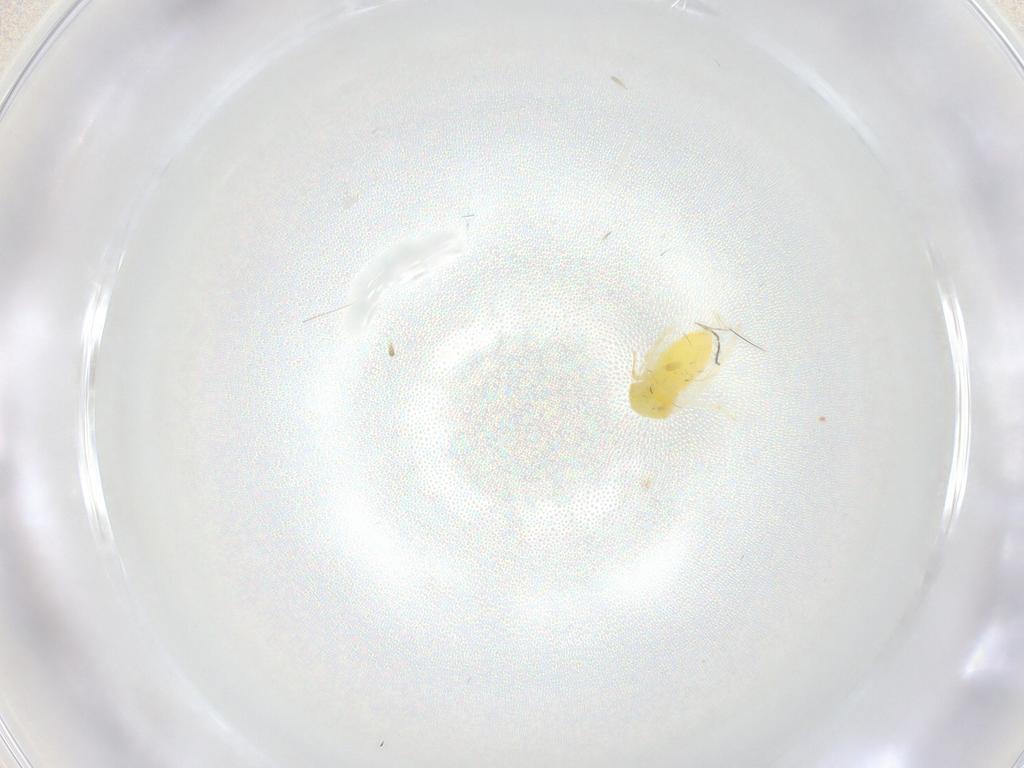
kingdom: Animalia
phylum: Arthropoda
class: Insecta
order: Hemiptera
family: Aleyrodidae
